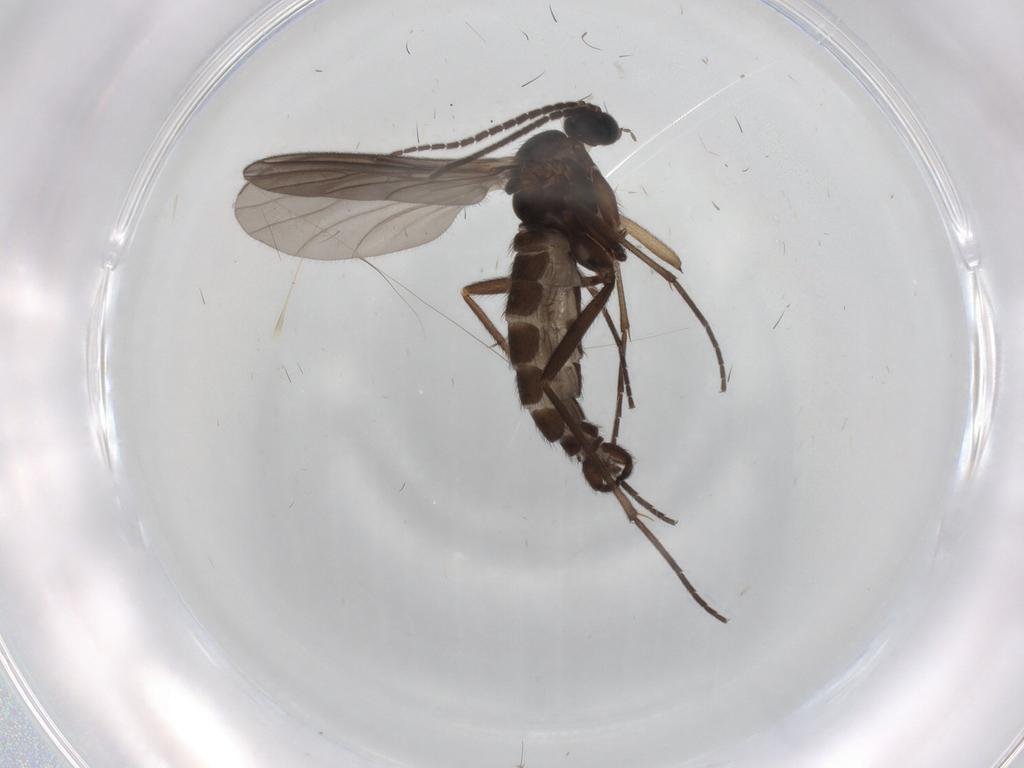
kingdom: Animalia
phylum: Arthropoda
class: Insecta
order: Diptera
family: Sciaridae
